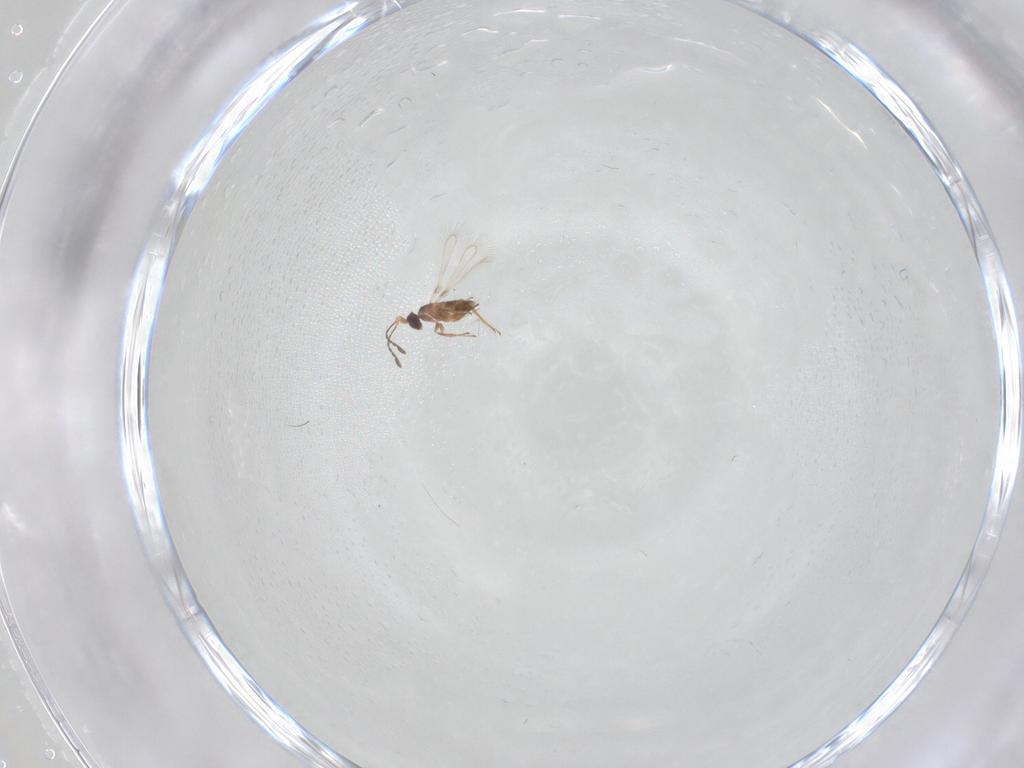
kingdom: Animalia
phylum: Arthropoda
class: Insecta
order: Hymenoptera
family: Mymaridae
